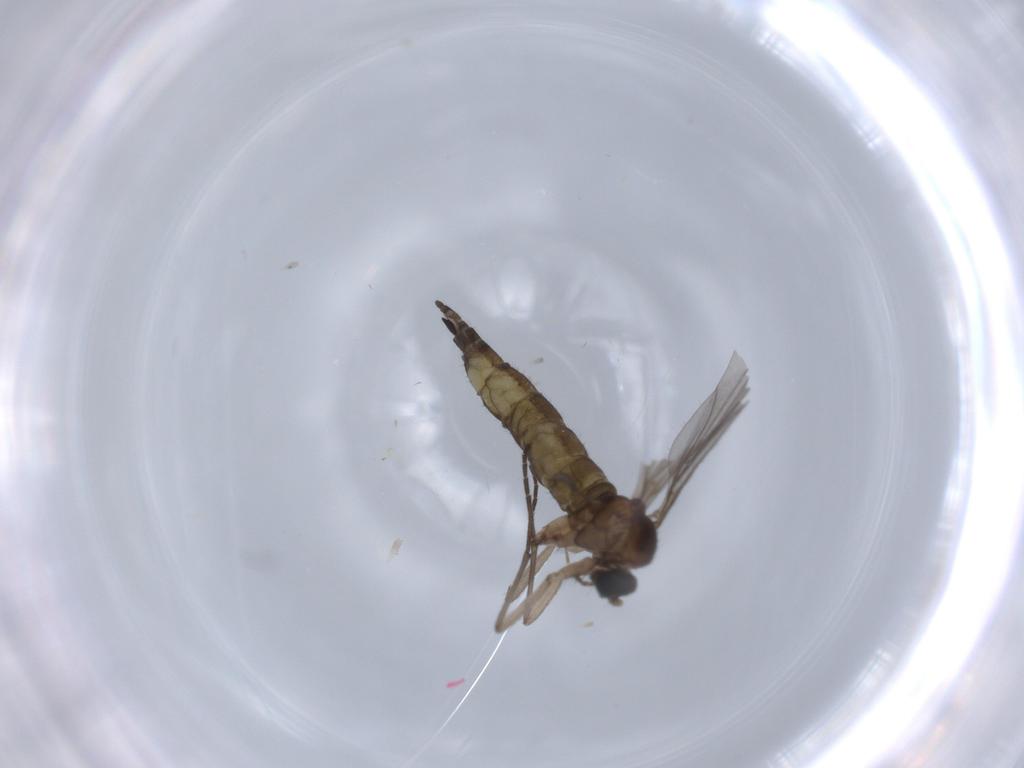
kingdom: Animalia
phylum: Arthropoda
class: Insecta
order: Diptera
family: Sciaridae
